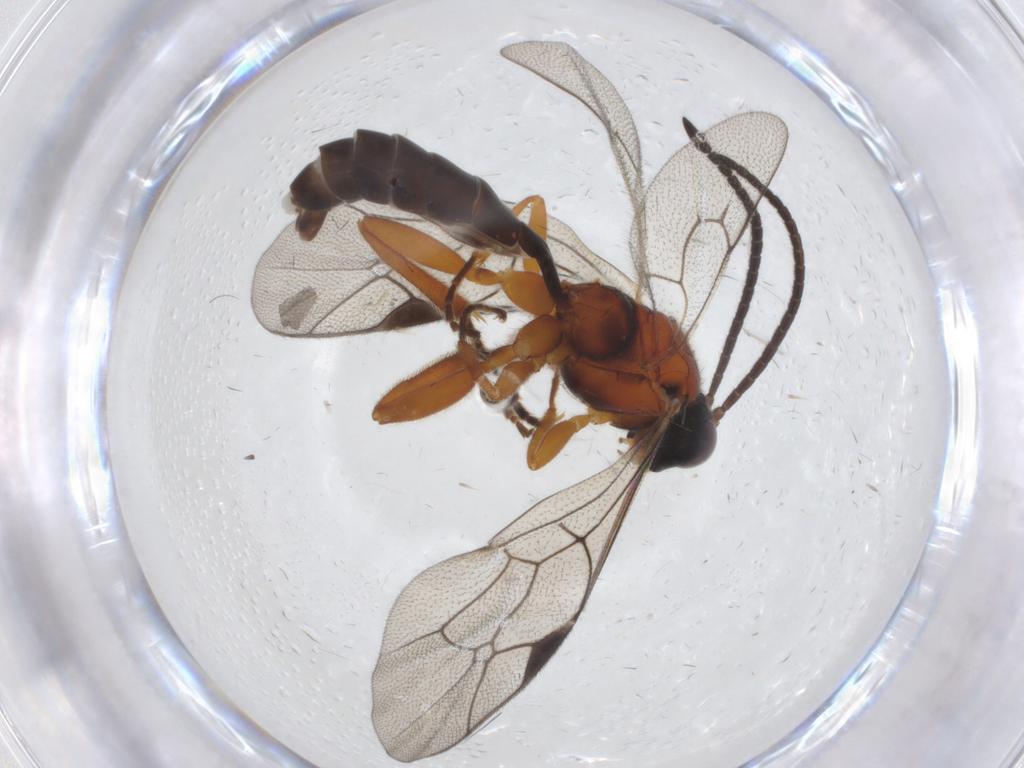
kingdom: Animalia
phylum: Arthropoda
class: Insecta
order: Hymenoptera
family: Ichneumonidae
